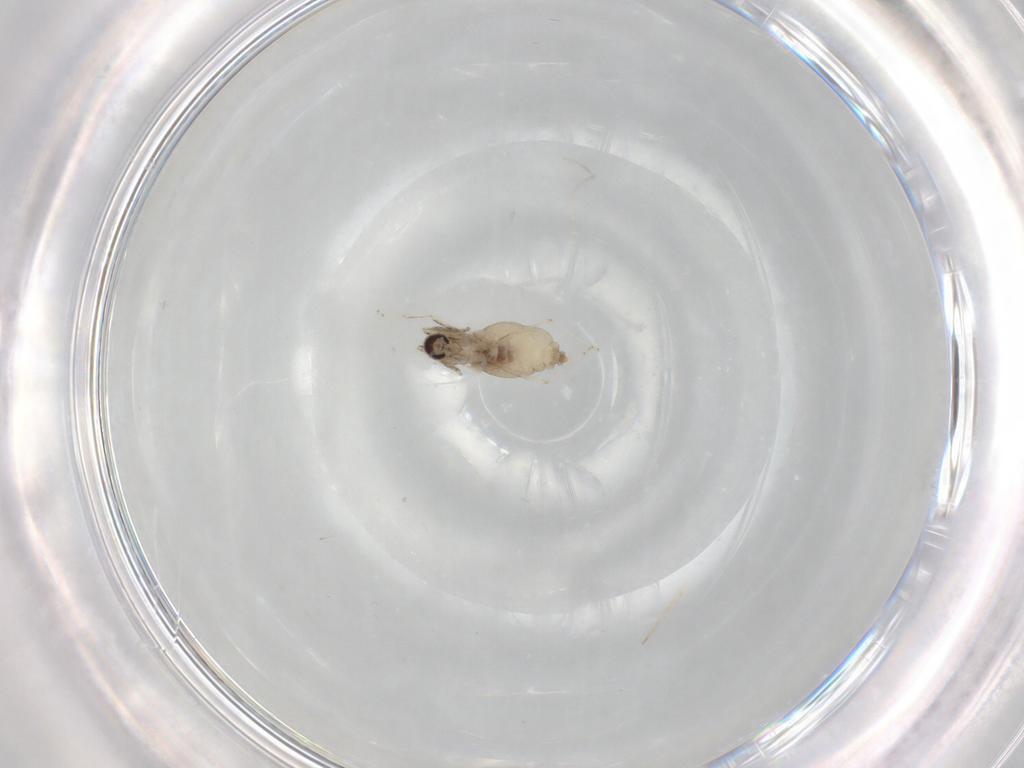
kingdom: Animalia
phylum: Arthropoda
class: Insecta
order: Diptera
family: Cecidomyiidae
